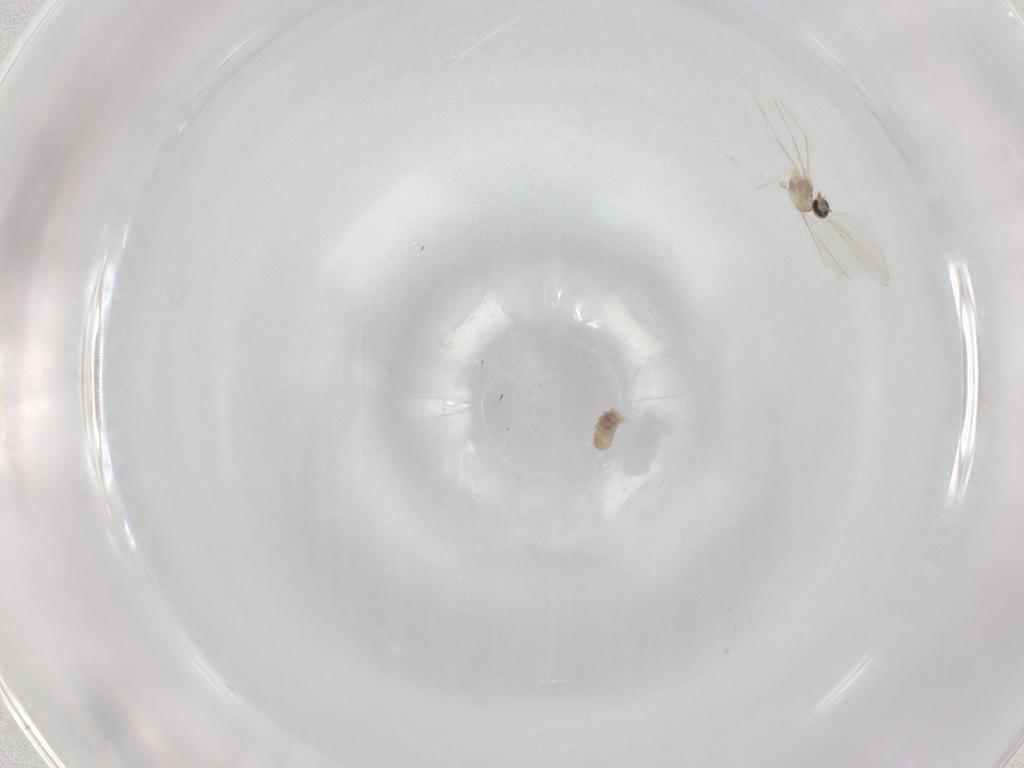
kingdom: Animalia
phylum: Arthropoda
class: Insecta
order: Diptera
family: Cecidomyiidae
